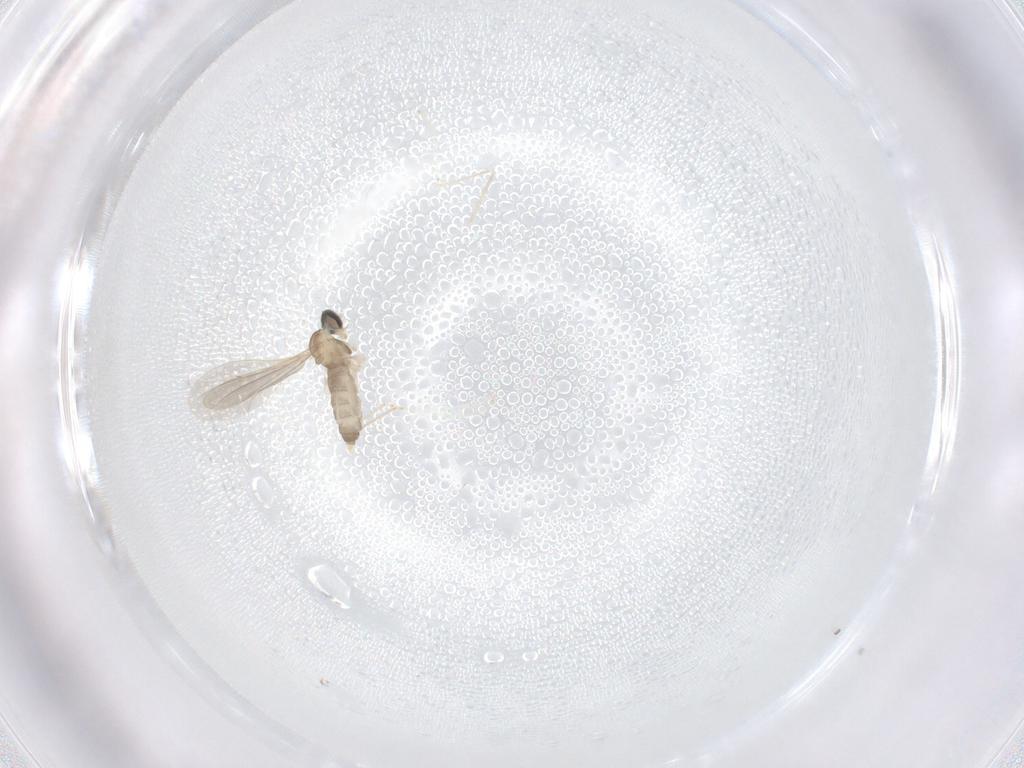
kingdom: Animalia
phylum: Arthropoda
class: Insecta
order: Diptera
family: Cecidomyiidae
